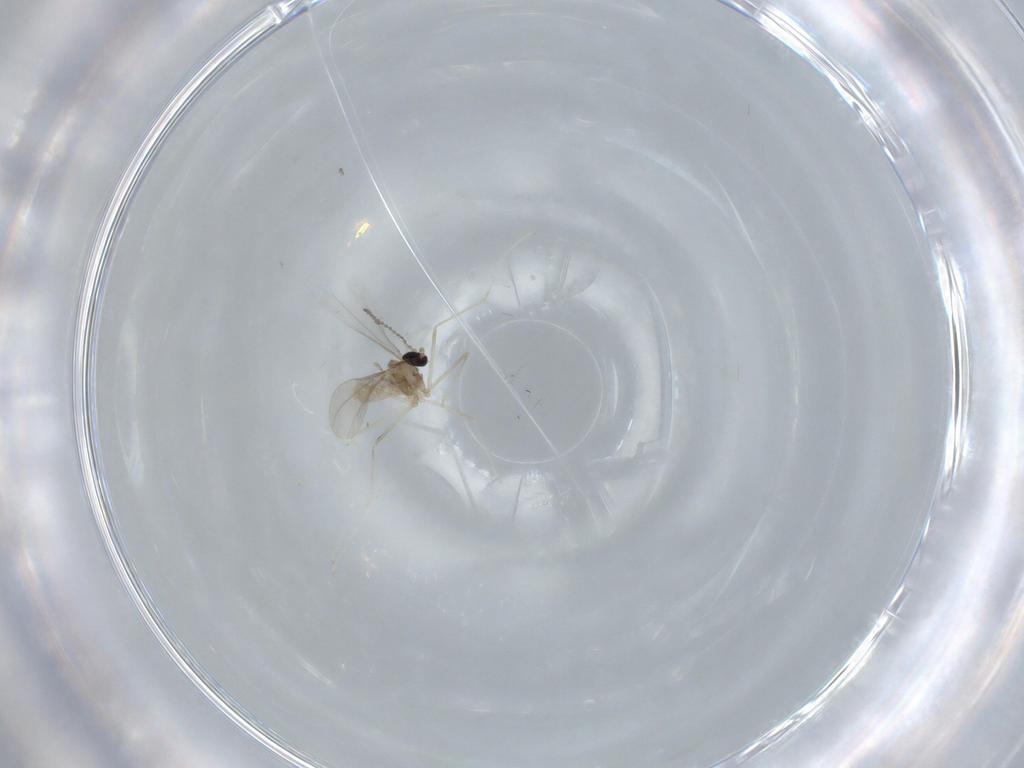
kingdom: Animalia
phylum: Arthropoda
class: Insecta
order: Diptera
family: Cecidomyiidae
